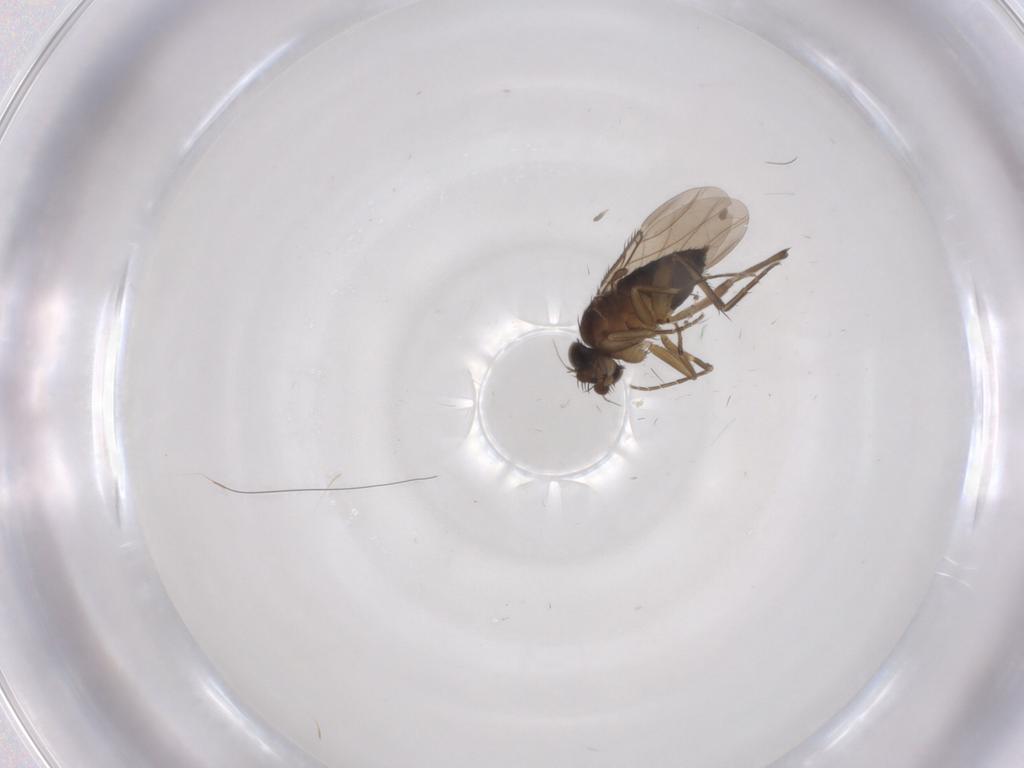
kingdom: Animalia
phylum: Arthropoda
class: Insecta
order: Diptera
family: Phoridae
